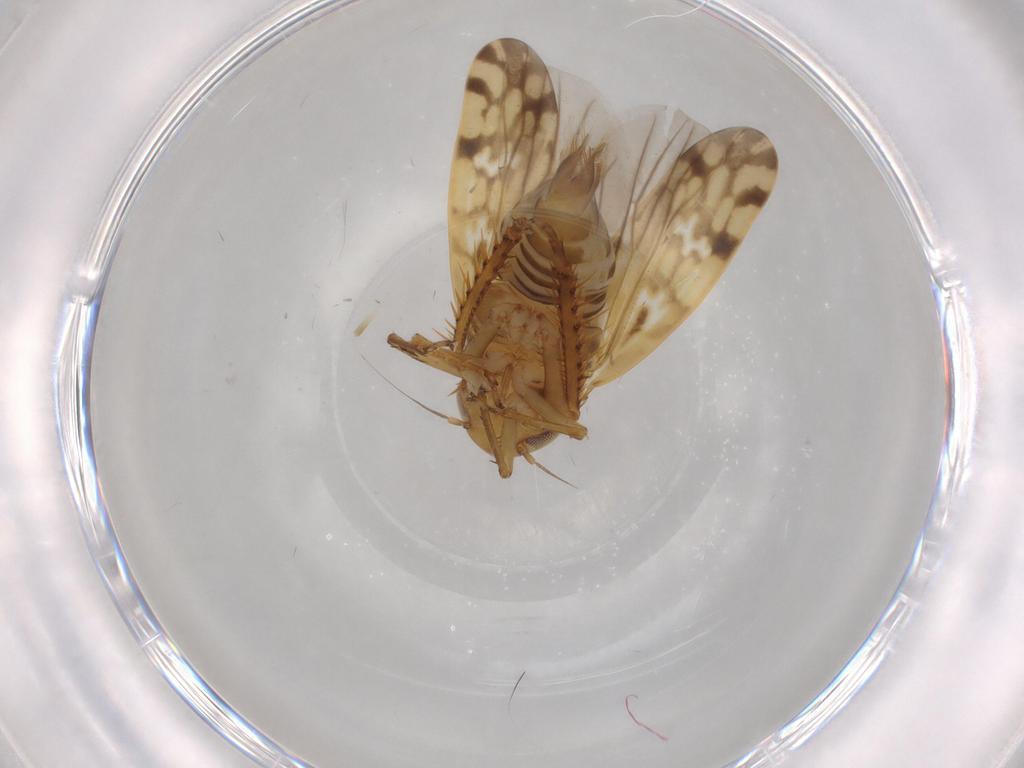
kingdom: Animalia
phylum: Arthropoda
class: Insecta
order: Hemiptera
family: Cicadellidae
